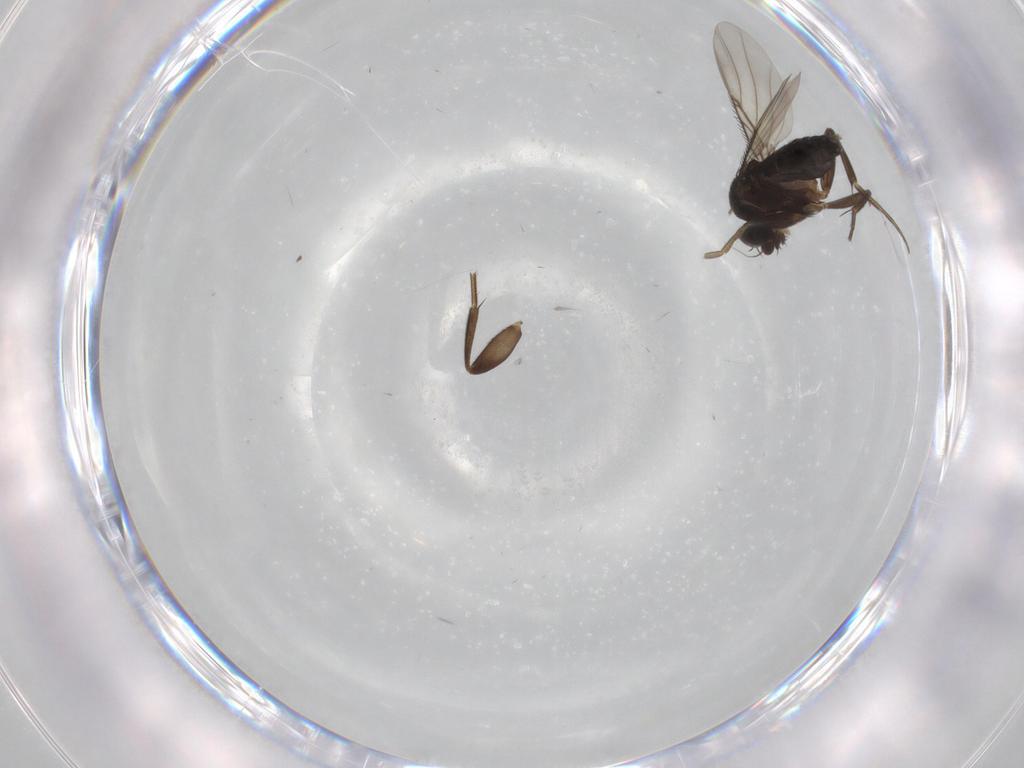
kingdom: Animalia
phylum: Arthropoda
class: Insecta
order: Diptera
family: Phoridae
